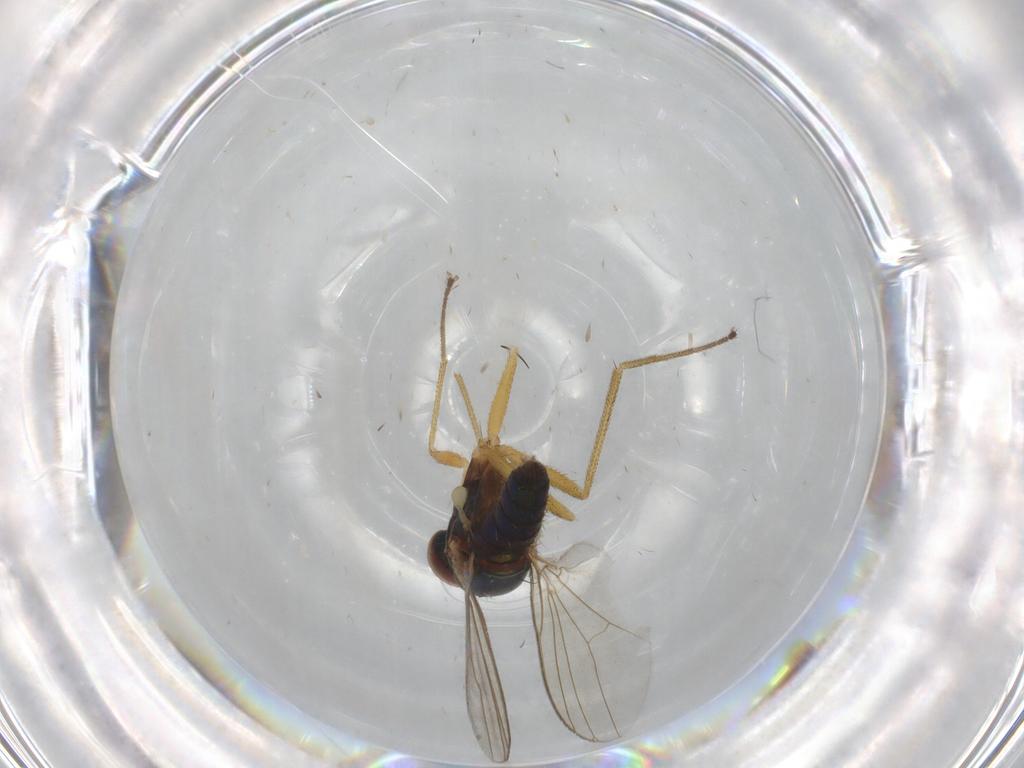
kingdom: Animalia
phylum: Arthropoda
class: Insecta
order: Diptera
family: Dolichopodidae
